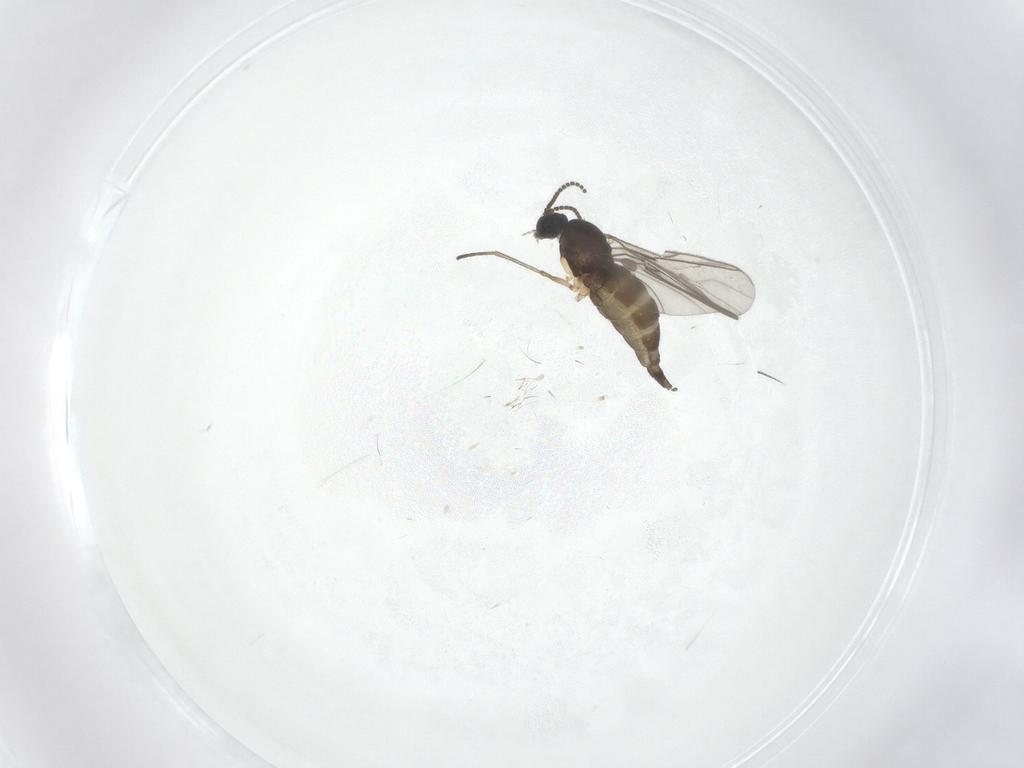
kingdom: Animalia
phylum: Arthropoda
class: Insecta
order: Diptera
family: Sciaridae
